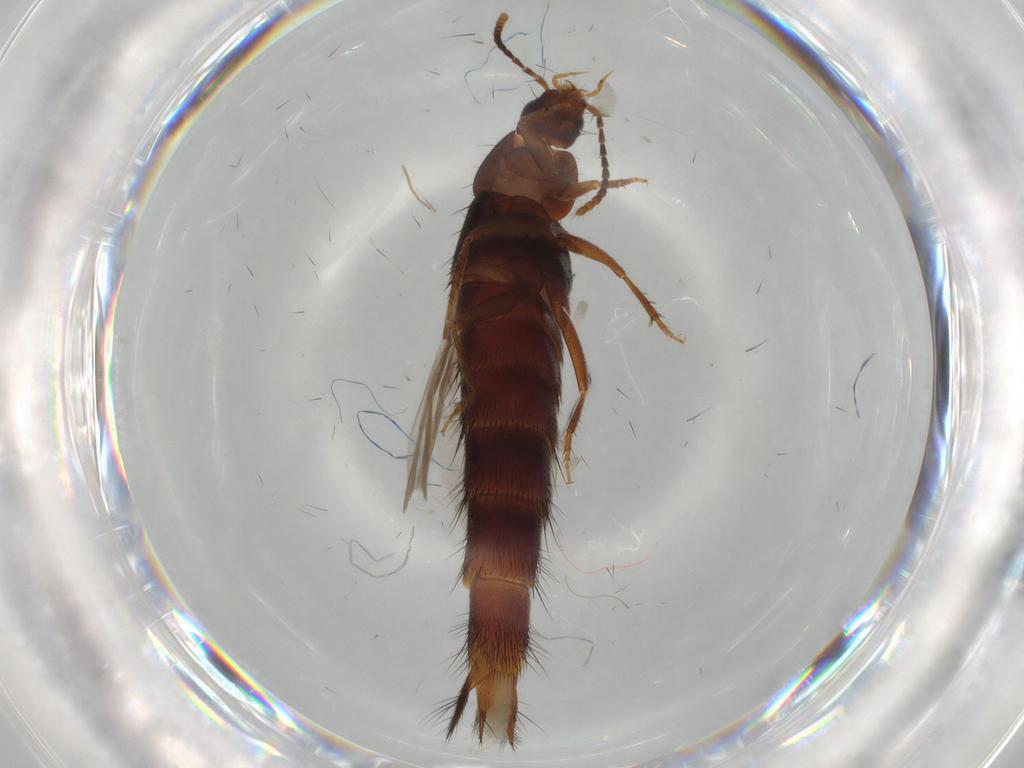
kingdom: Animalia
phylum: Arthropoda
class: Insecta
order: Coleoptera
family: Staphylinidae
